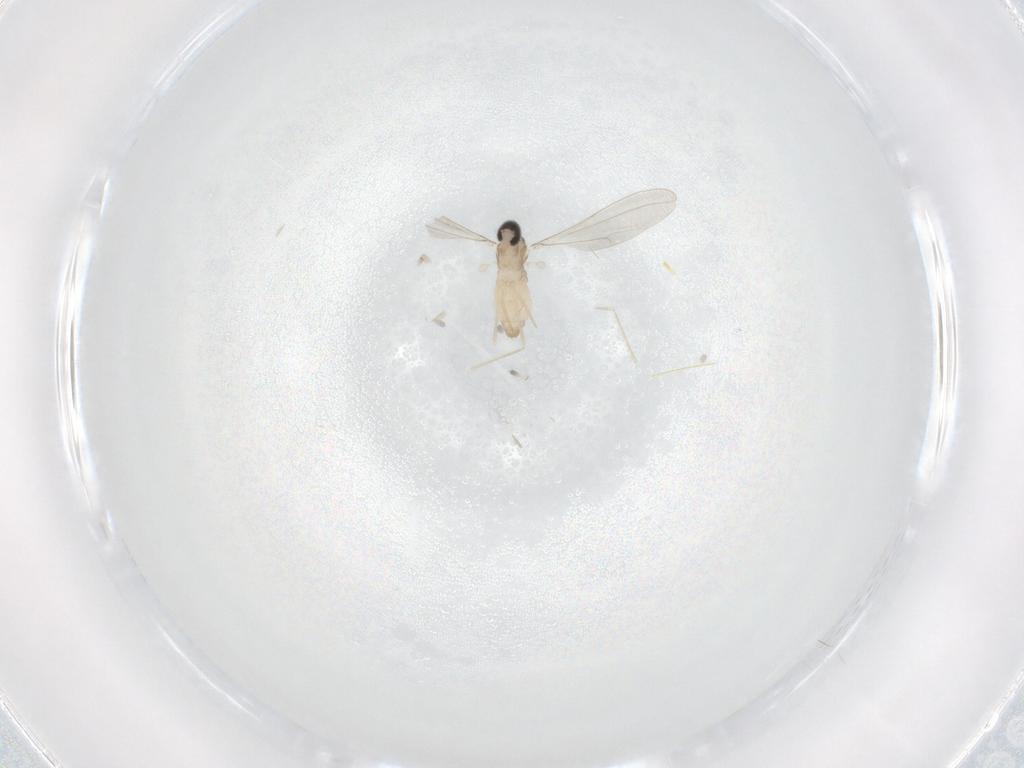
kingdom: Animalia
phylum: Arthropoda
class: Insecta
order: Diptera
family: Cecidomyiidae
